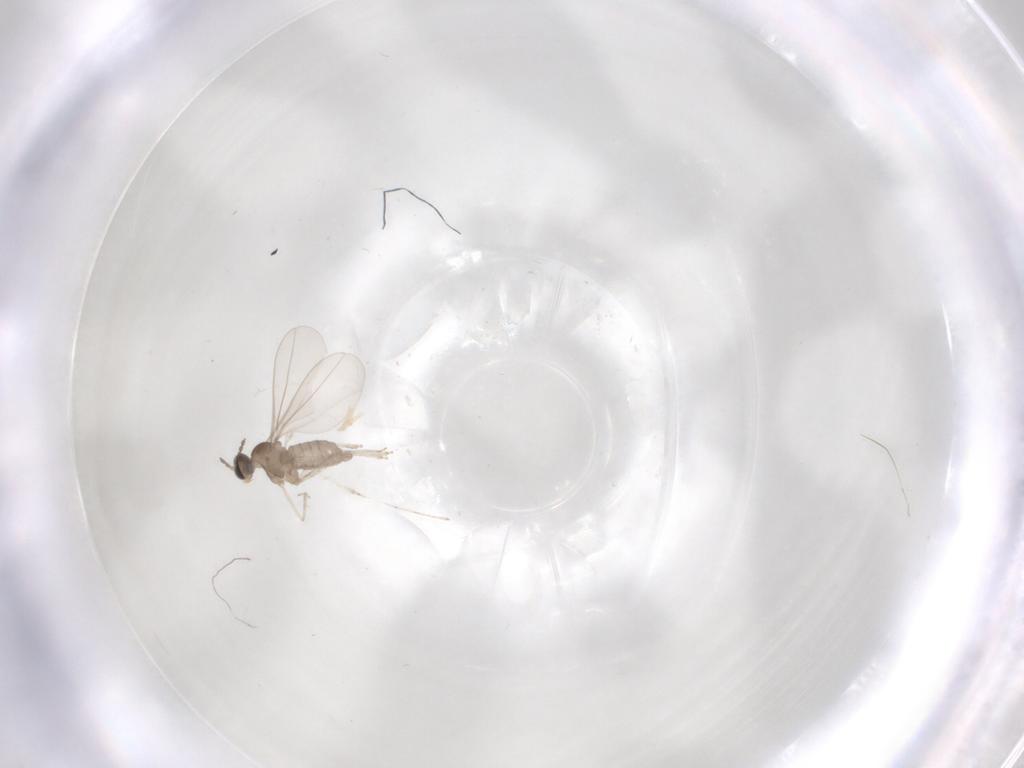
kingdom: Animalia
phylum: Arthropoda
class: Insecta
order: Diptera
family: Cecidomyiidae
